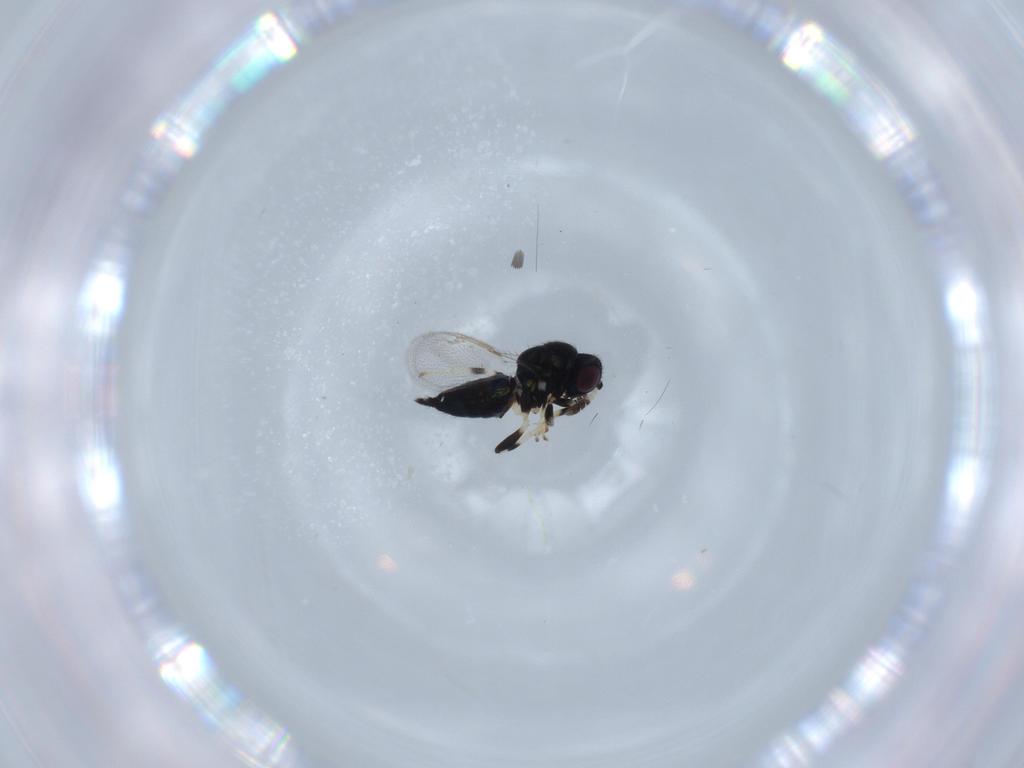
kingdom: Animalia
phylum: Arthropoda
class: Insecta
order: Hymenoptera
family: Pirenidae
